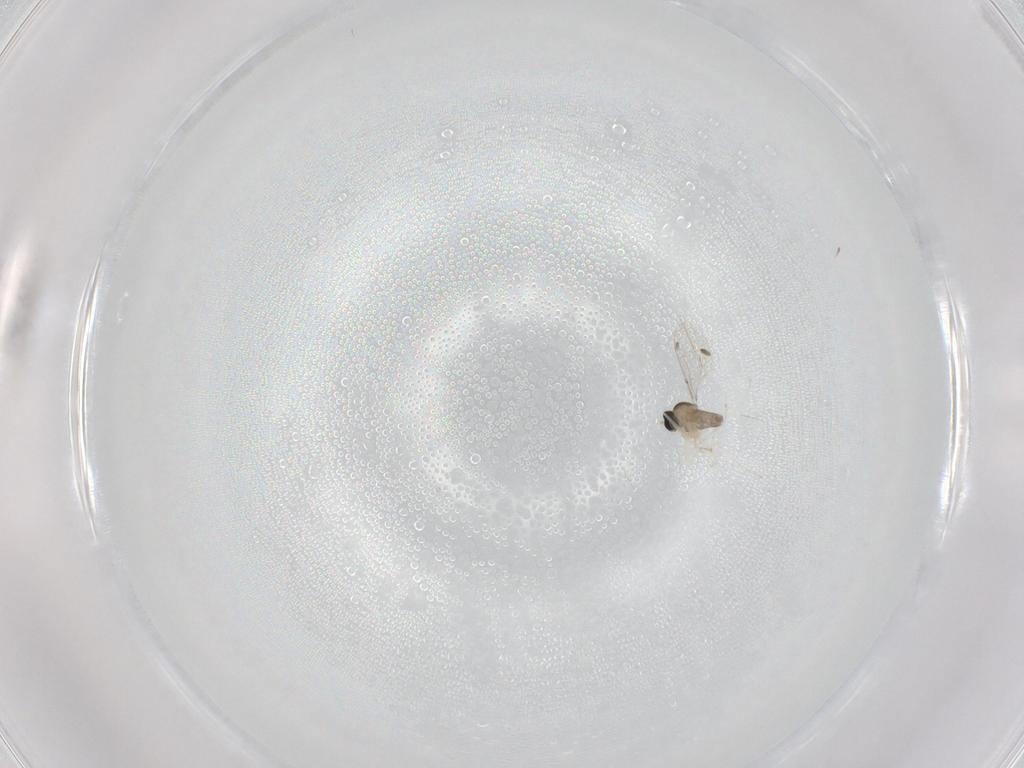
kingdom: Animalia
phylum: Arthropoda
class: Insecta
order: Diptera
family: Cecidomyiidae
